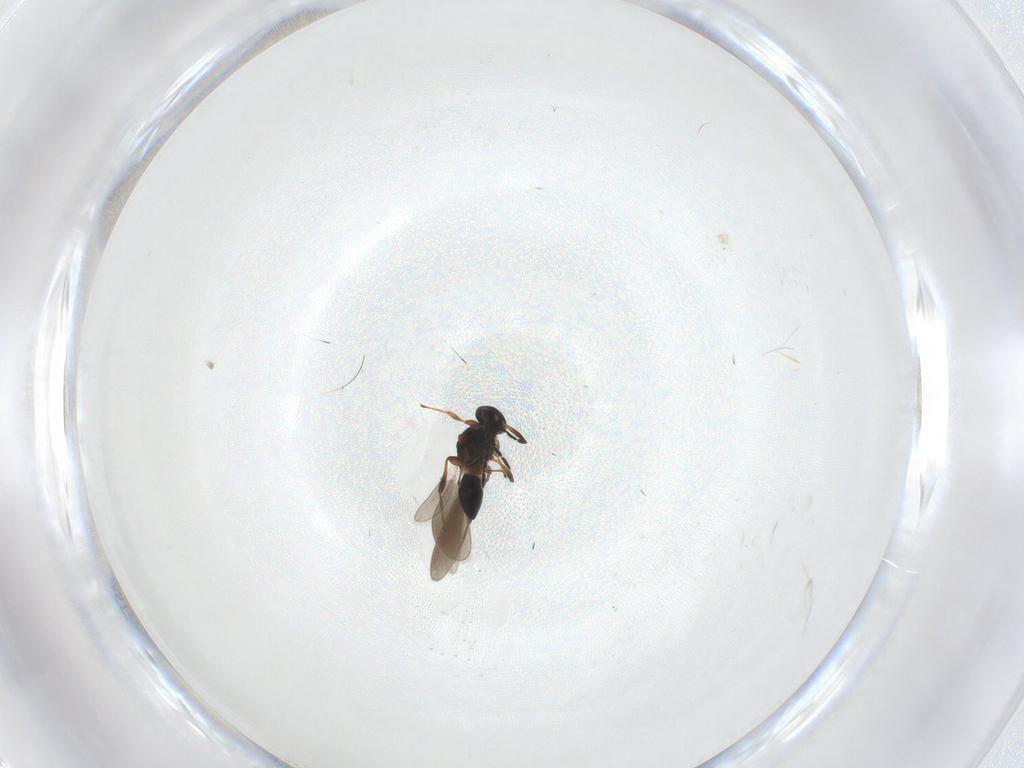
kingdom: Animalia
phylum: Arthropoda
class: Insecta
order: Hymenoptera
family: Platygastridae
